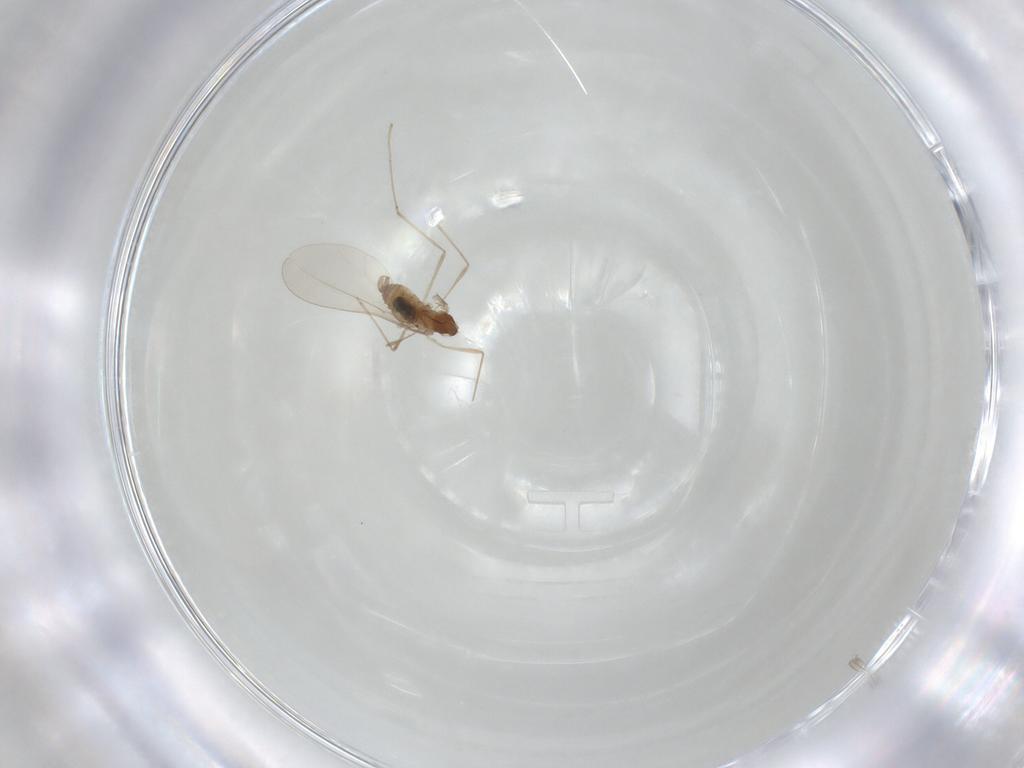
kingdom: Animalia
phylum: Arthropoda
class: Insecta
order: Diptera
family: Cecidomyiidae
